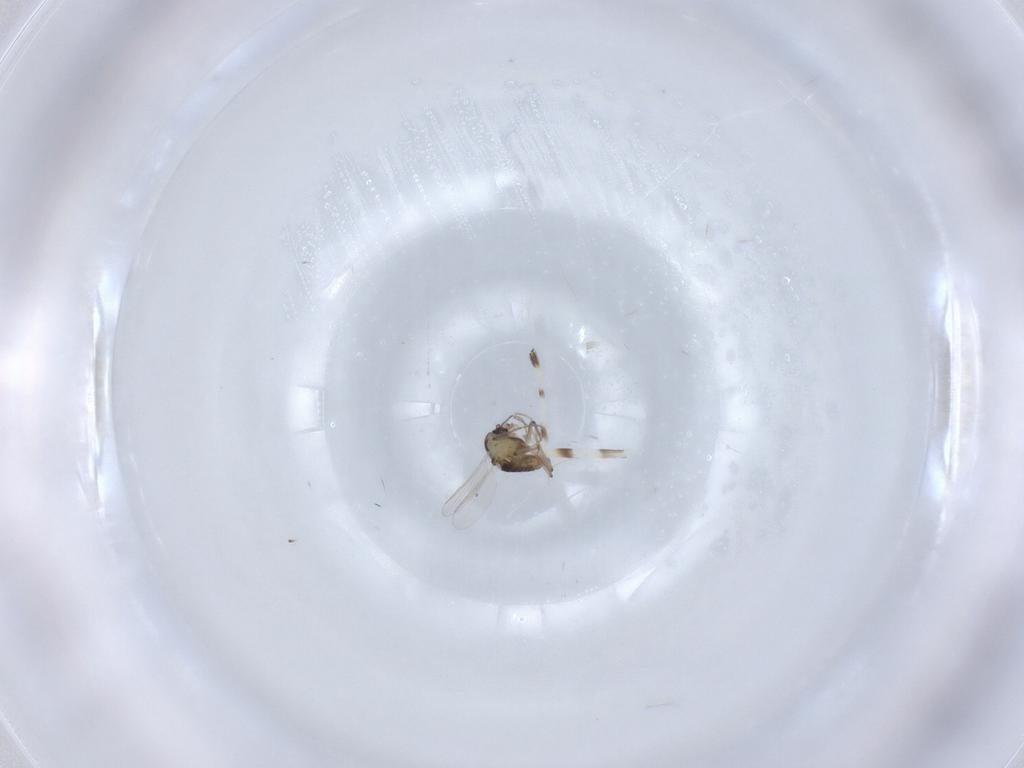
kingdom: Animalia
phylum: Arthropoda
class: Insecta
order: Diptera
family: Chironomidae
